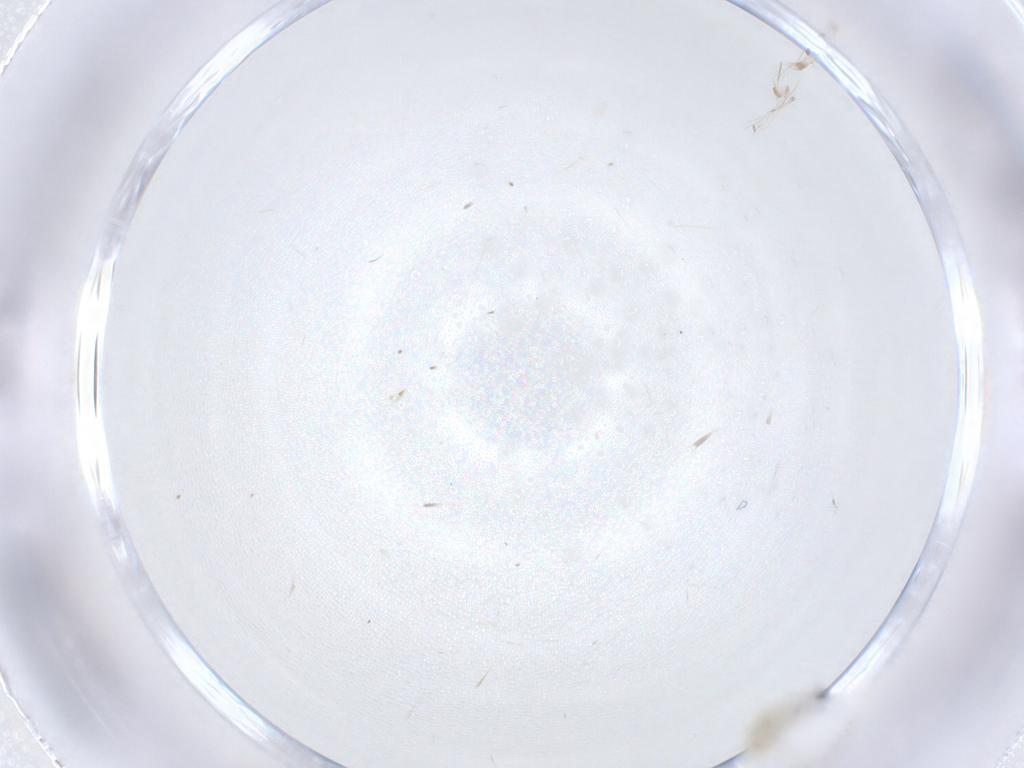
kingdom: Animalia
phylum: Arthropoda
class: Insecta
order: Diptera
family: Cecidomyiidae
